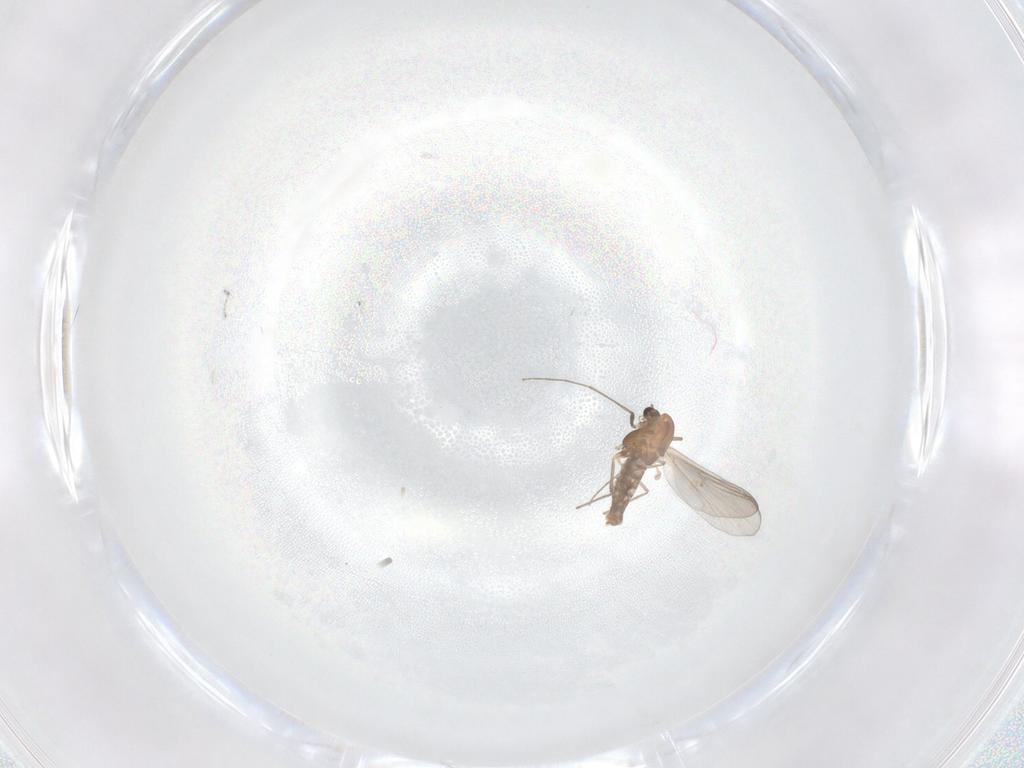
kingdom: Animalia
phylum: Arthropoda
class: Insecta
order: Diptera
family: Chironomidae
